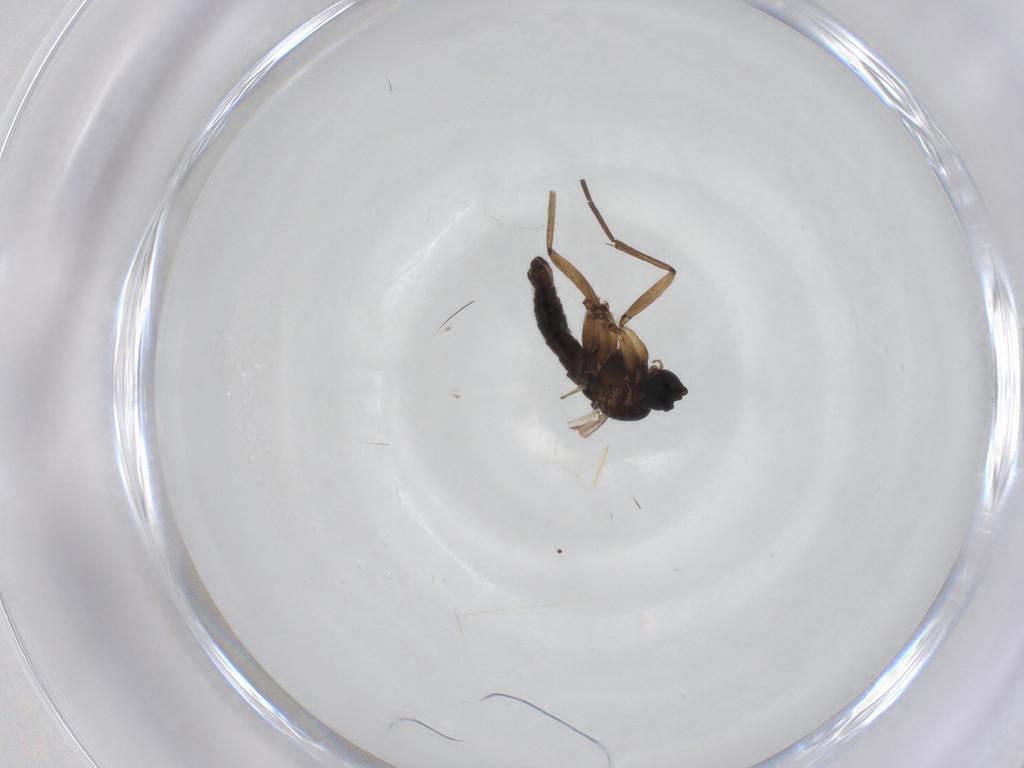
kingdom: Animalia
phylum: Arthropoda
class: Insecta
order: Diptera
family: Sciaridae
